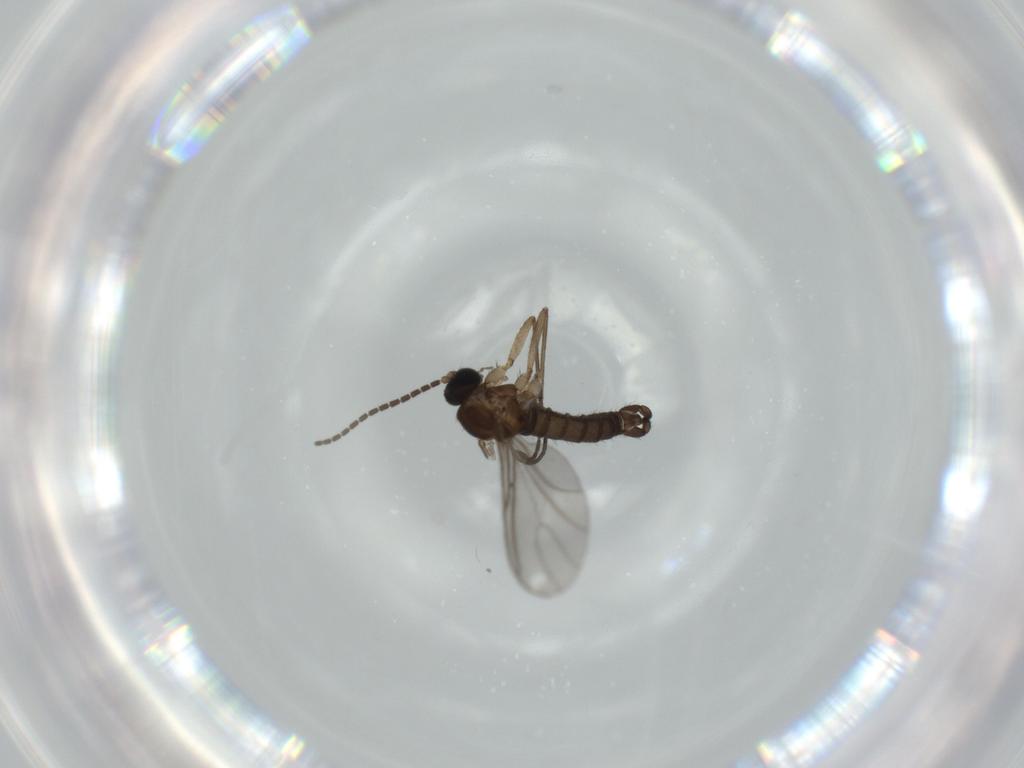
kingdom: Animalia
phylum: Arthropoda
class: Insecta
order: Diptera
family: Sciaridae
